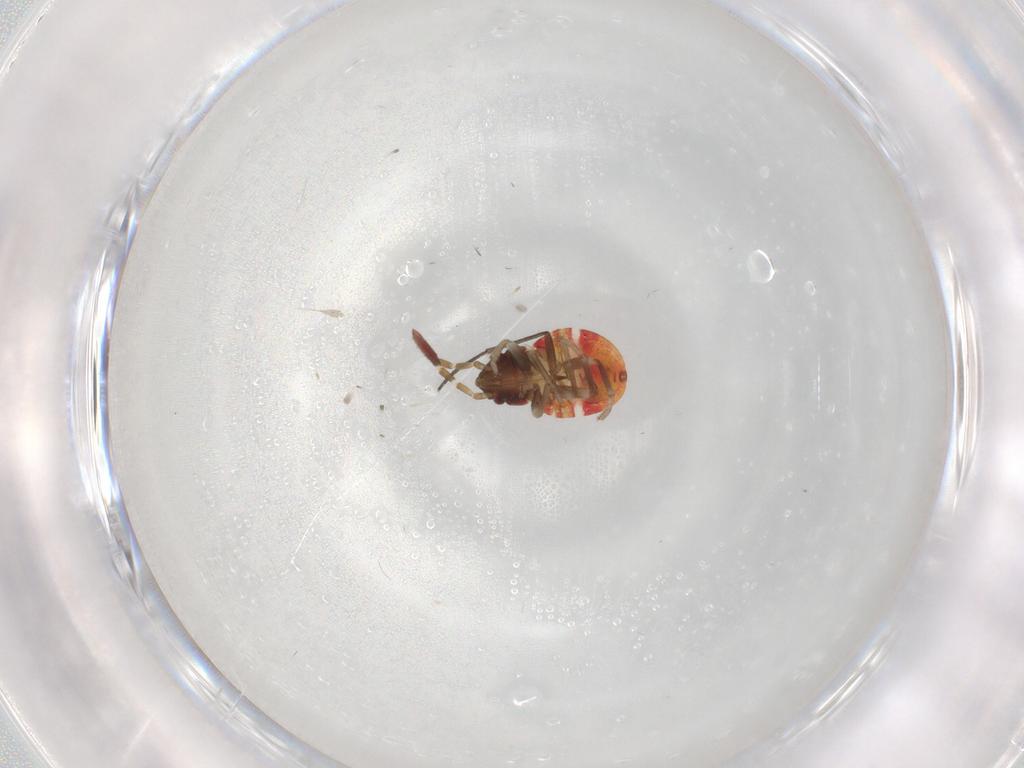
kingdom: Animalia
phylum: Arthropoda
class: Insecta
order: Hemiptera
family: Rhyparochromidae
